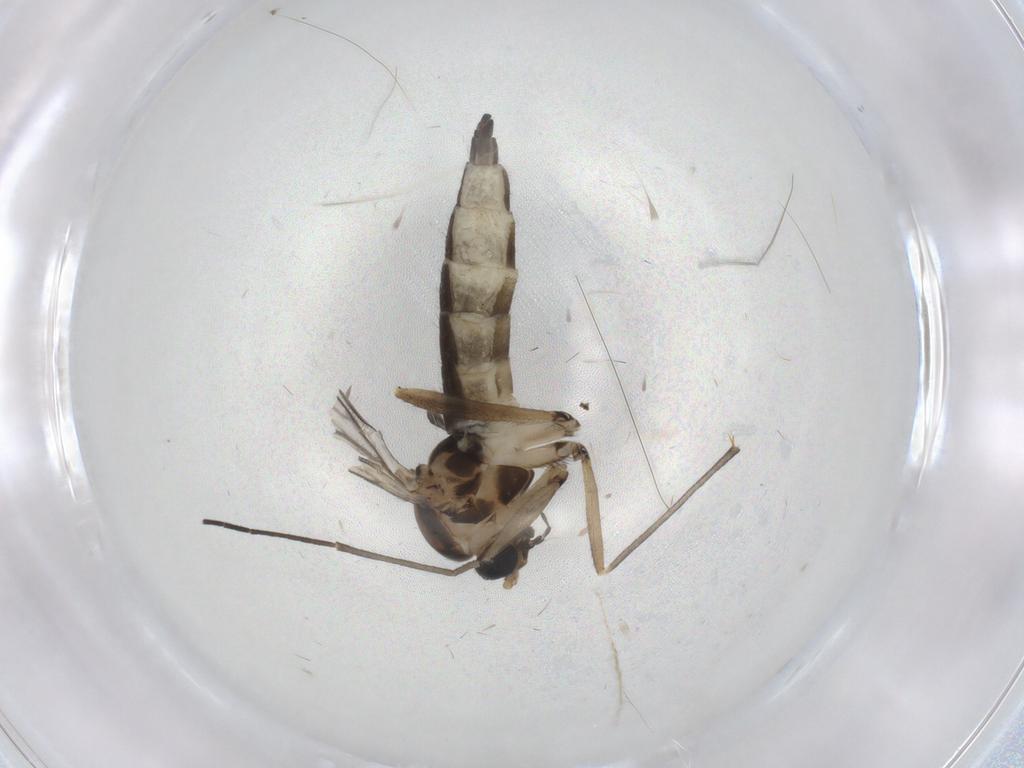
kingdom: Animalia
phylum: Arthropoda
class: Insecta
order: Diptera
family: Sciaridae
